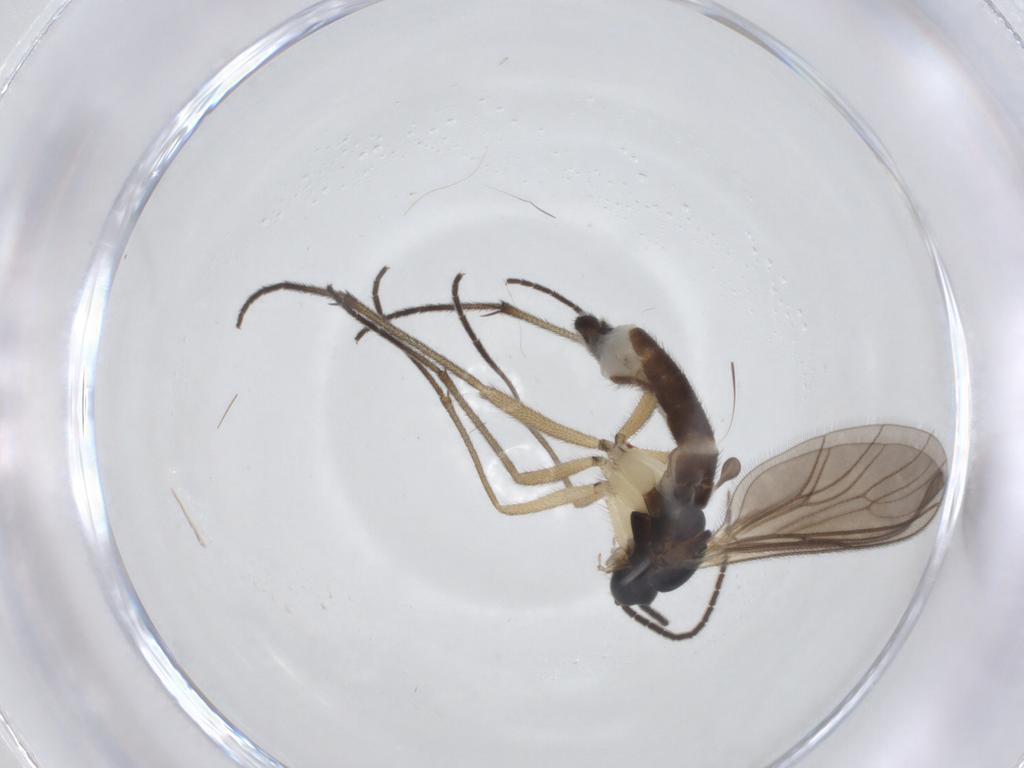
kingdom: Animalia
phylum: Arthropoda
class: Insecta
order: Diptera
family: Sciaridae
